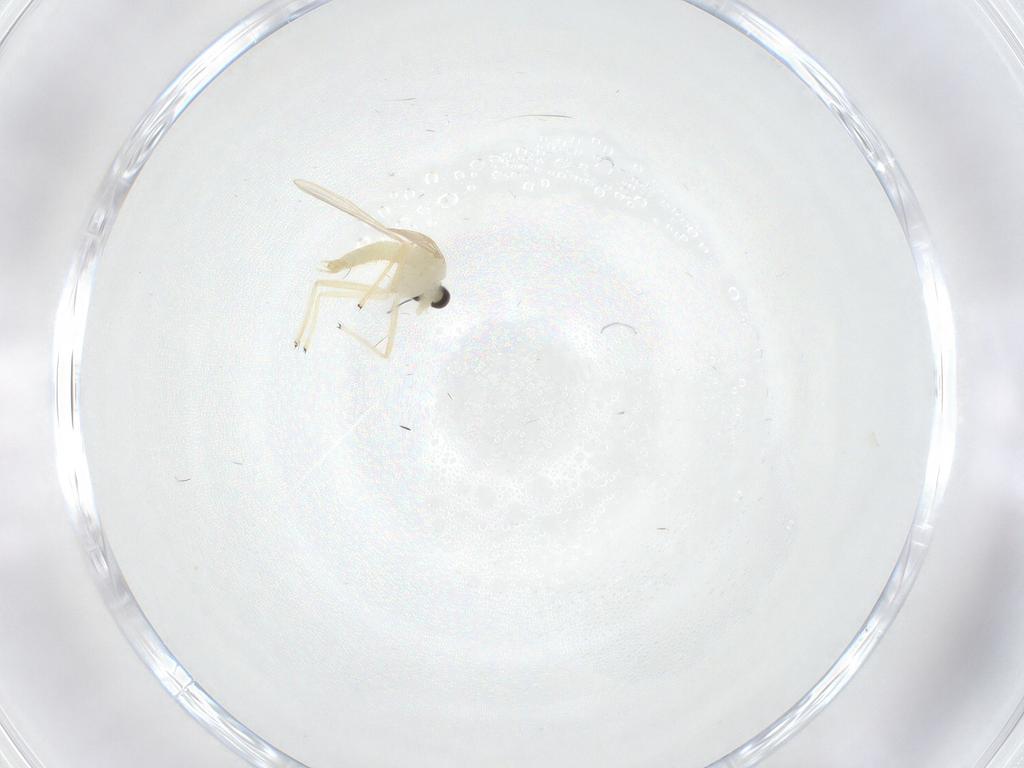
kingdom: Animalia
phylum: Arthropoda
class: Insecta
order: Diptera
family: Chironomidae
